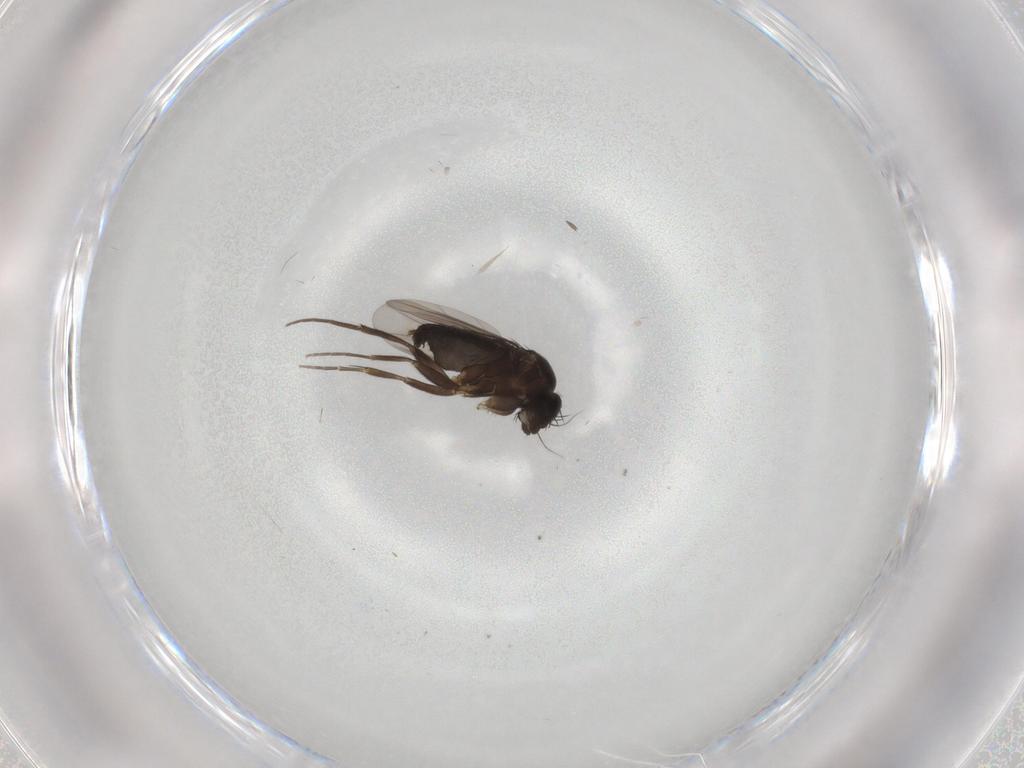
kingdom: Animalia
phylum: Arthropoda
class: Insecta
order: Diptera
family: Phoridae
